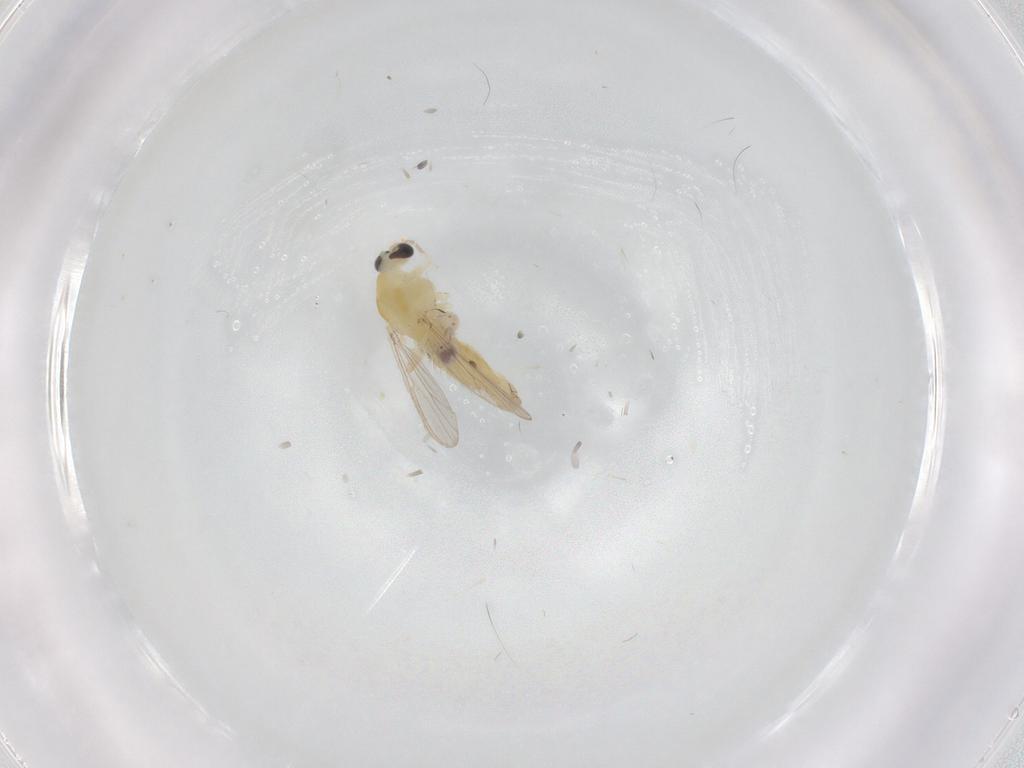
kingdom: Animalia
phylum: Arthropoda
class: Insecta
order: Diptera
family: Chironomidae
